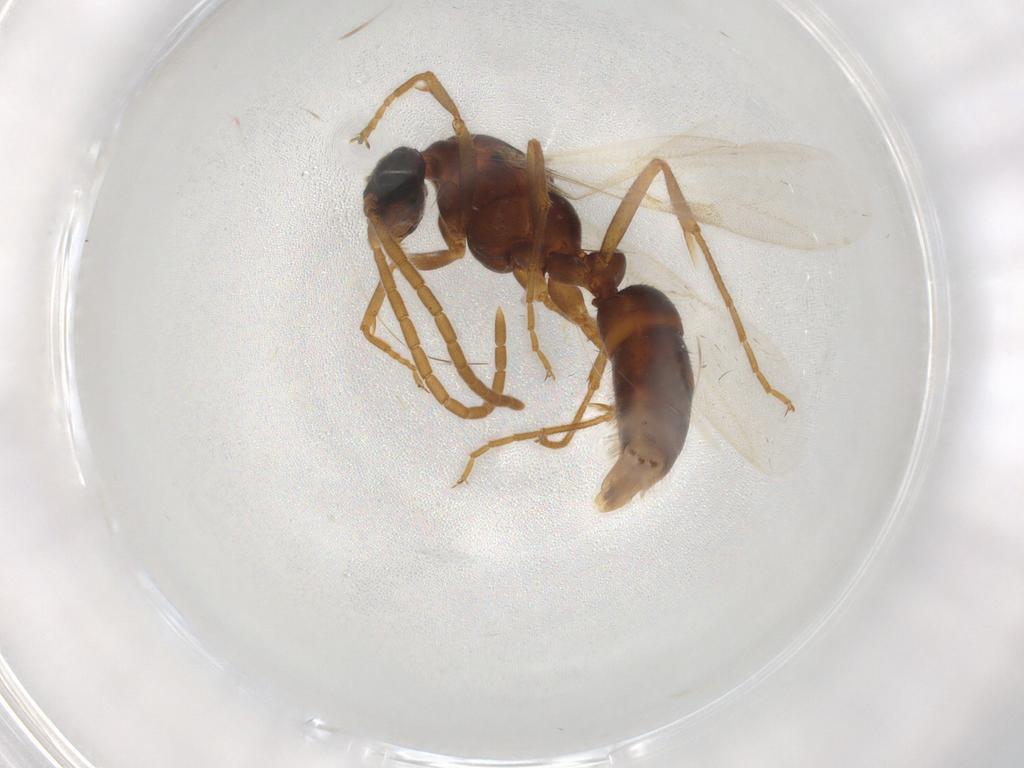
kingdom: Animalia
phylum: Arthropoda
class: Insecta
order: Hymenoptera
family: Formicidae
